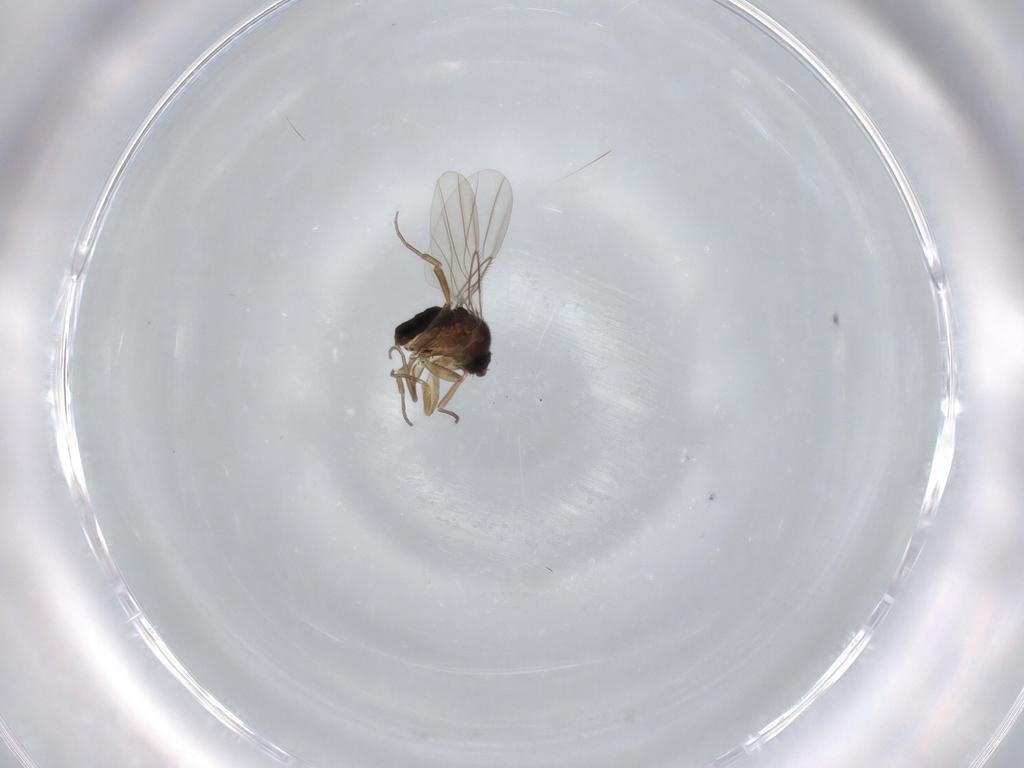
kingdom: Animalia
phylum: Arthropoda
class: Insecta
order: Diptera
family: Phoridae
